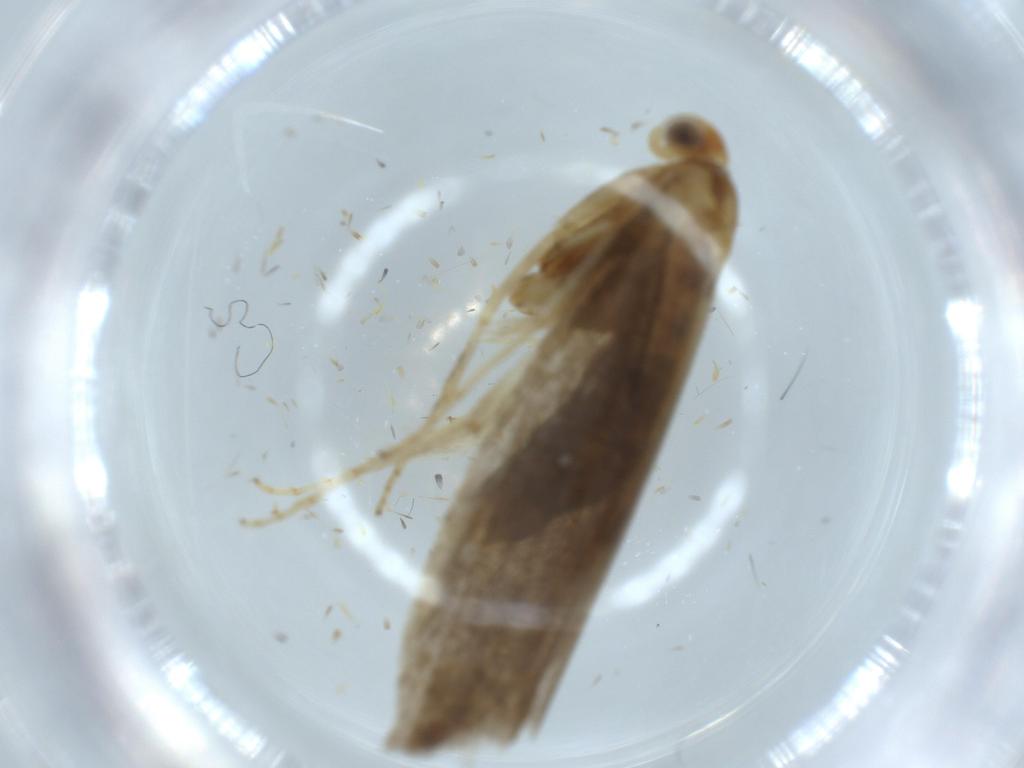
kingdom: Animalia
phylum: Arthropoda
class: Insecta
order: Lepidoptera
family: Argyresthiidae
